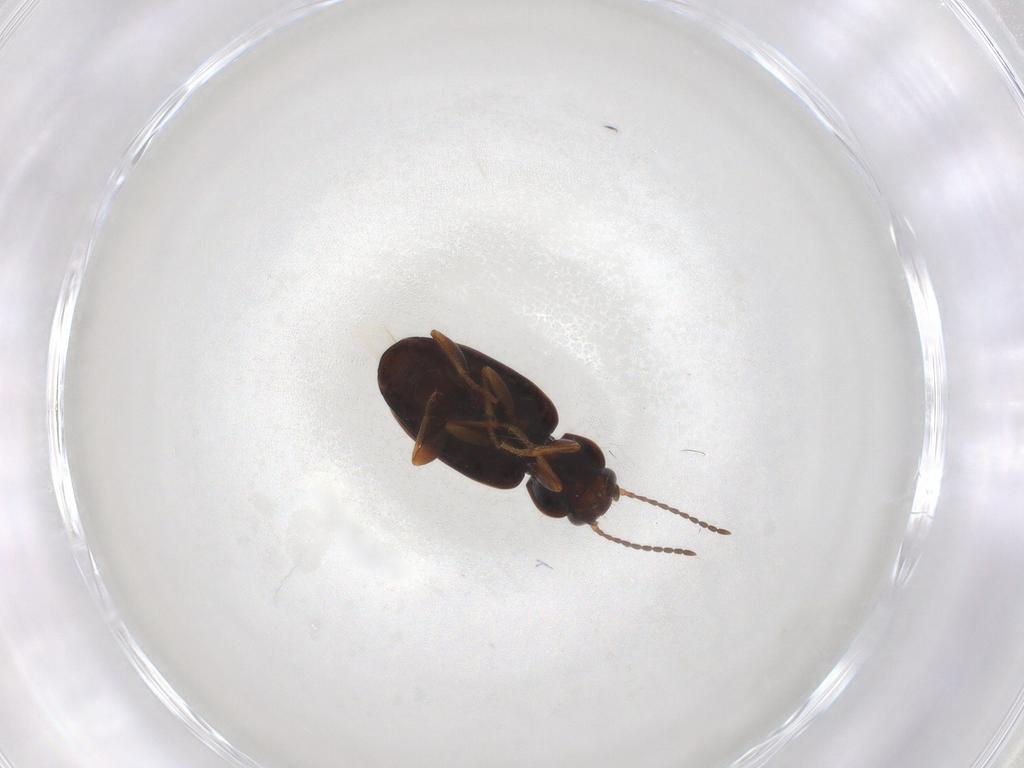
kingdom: Animalia
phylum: Arthropoda
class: Insecta
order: Coleoptera
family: Carabidae
